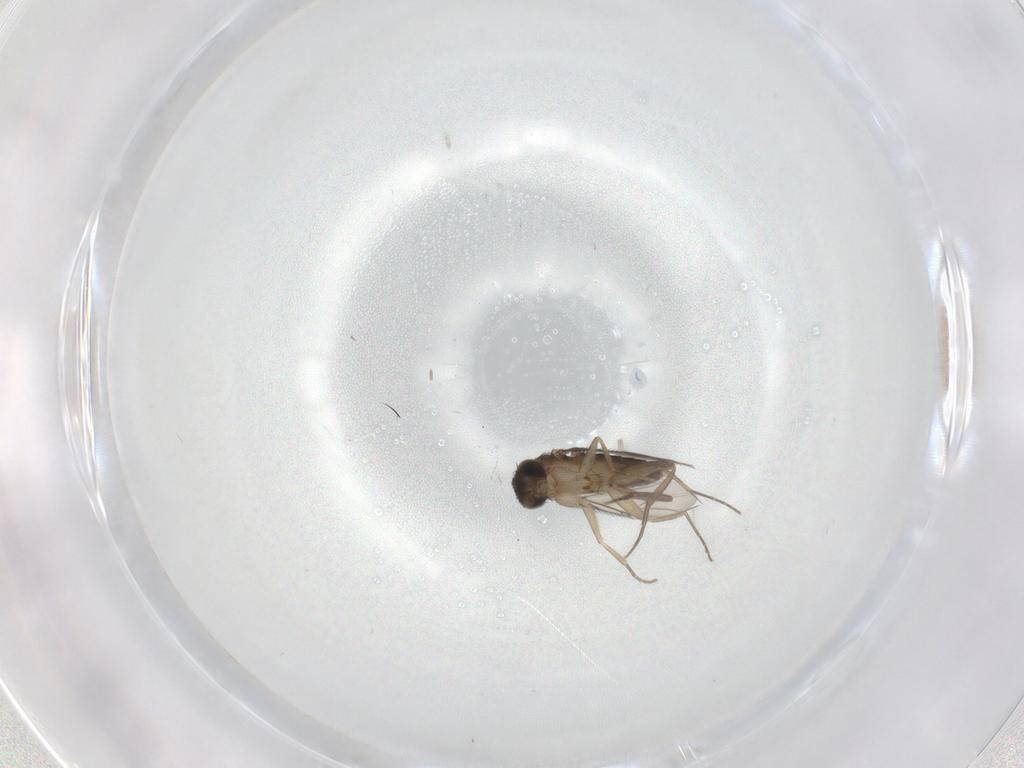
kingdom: Animalia
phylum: Arthropoda
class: Insecta
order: Diptera
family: Phoridae
